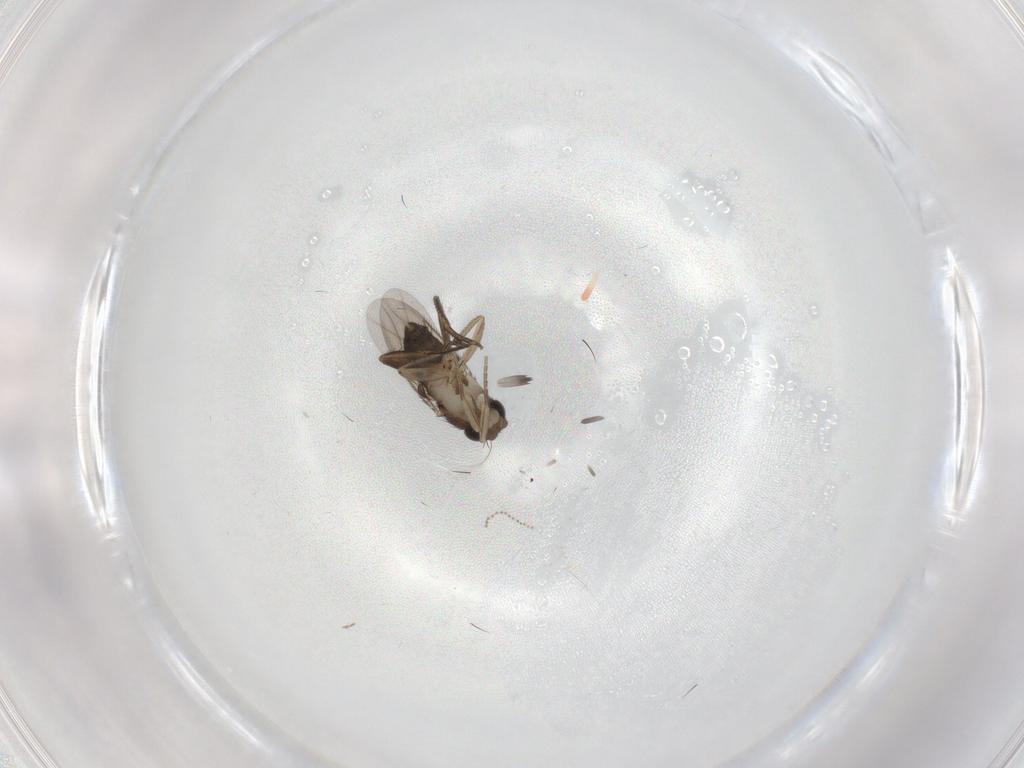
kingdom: Animalia
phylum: Arthropoda
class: Insecta
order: Diptera
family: Phoridae
